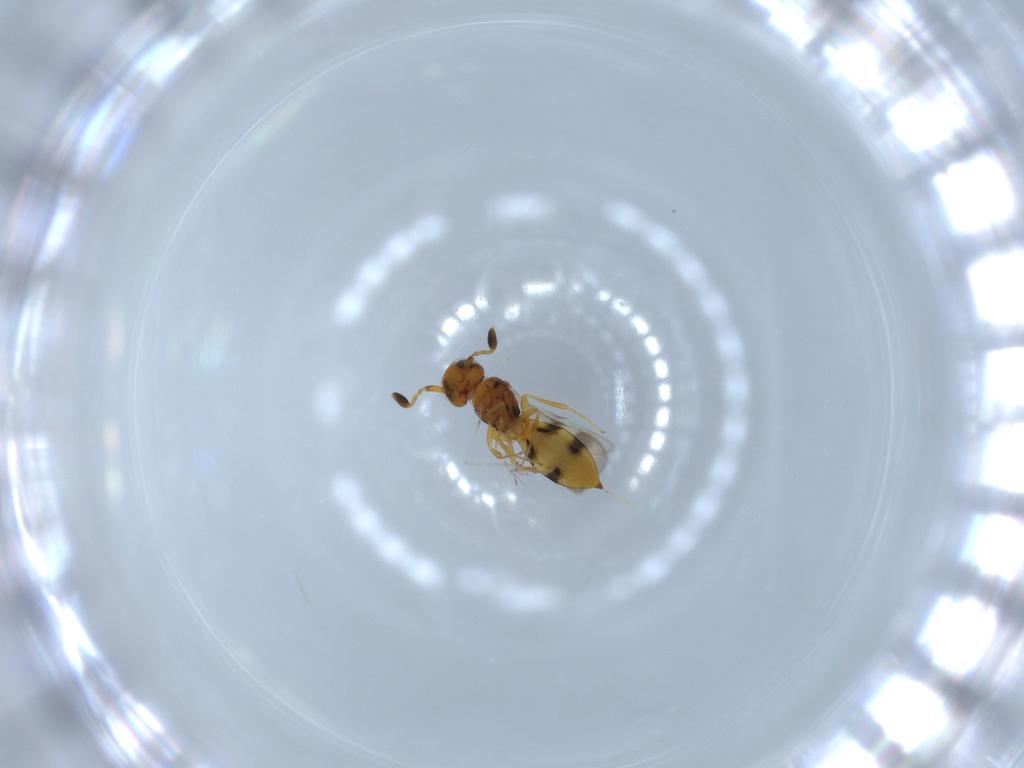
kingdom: Animalia
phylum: Arthropoda
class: Insecta
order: Hymenoptera
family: Scelionidae
